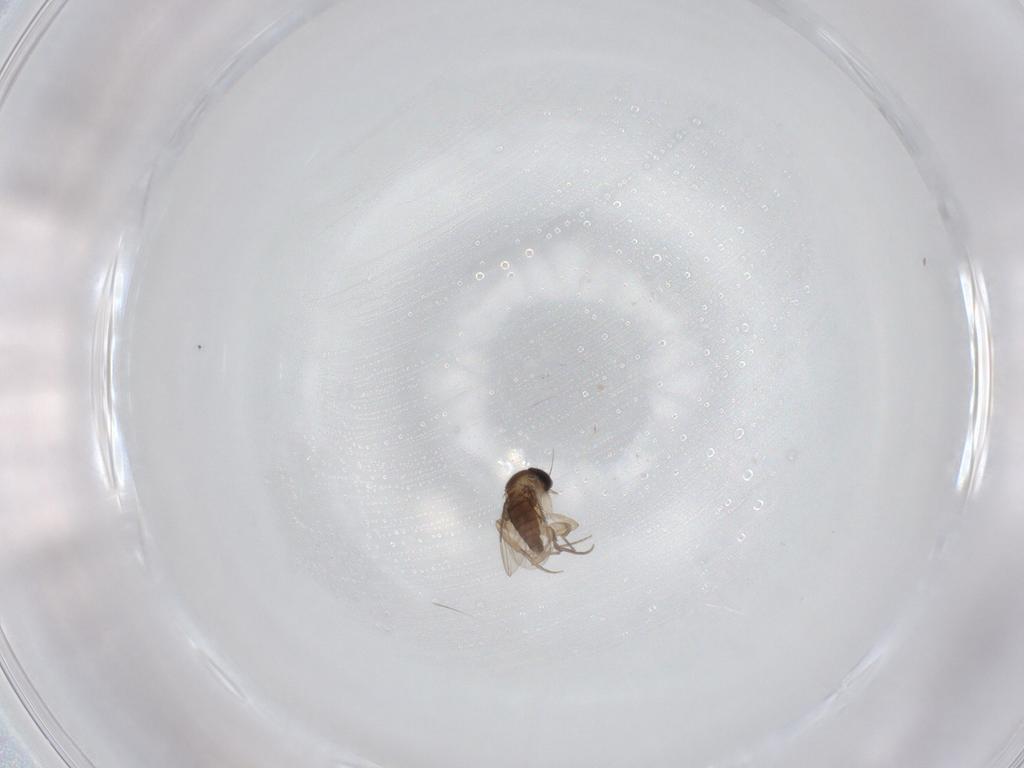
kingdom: Animalia
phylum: Arthropoda
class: Insecta
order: Diptera
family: Phoridae
